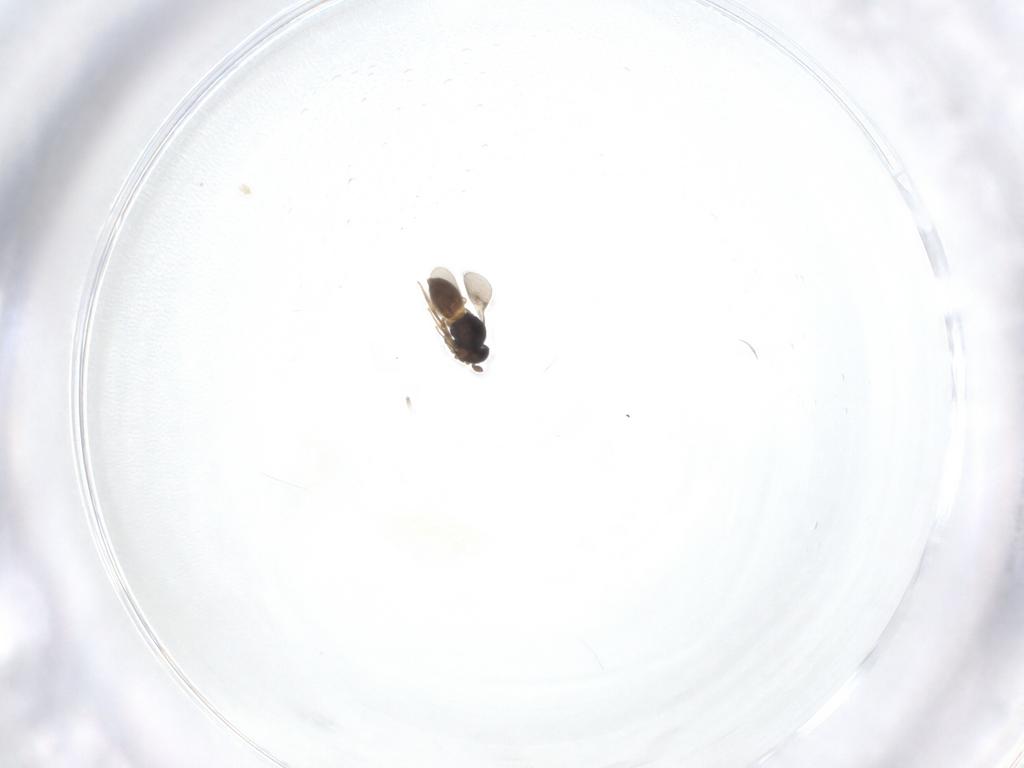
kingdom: Animalia
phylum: Arthropoda
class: Insecta
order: Hymenoptera
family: Scelionidae
